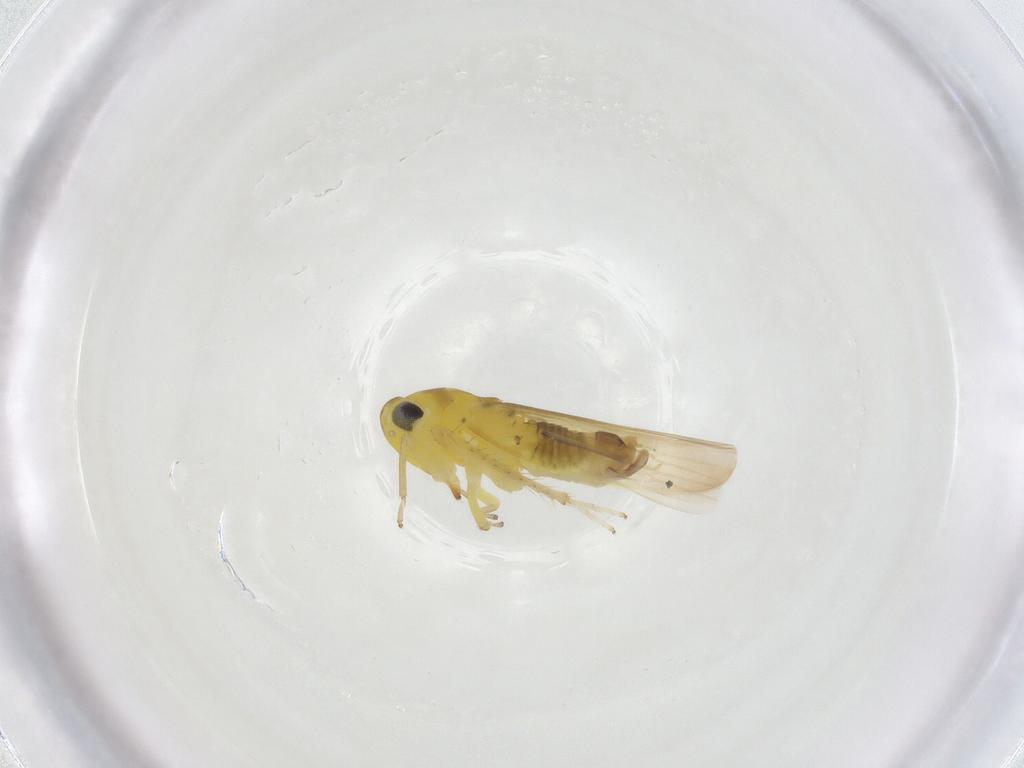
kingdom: Animalia
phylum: Arthropoda
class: Insecta
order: Hemiptera
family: Cicadellidae
